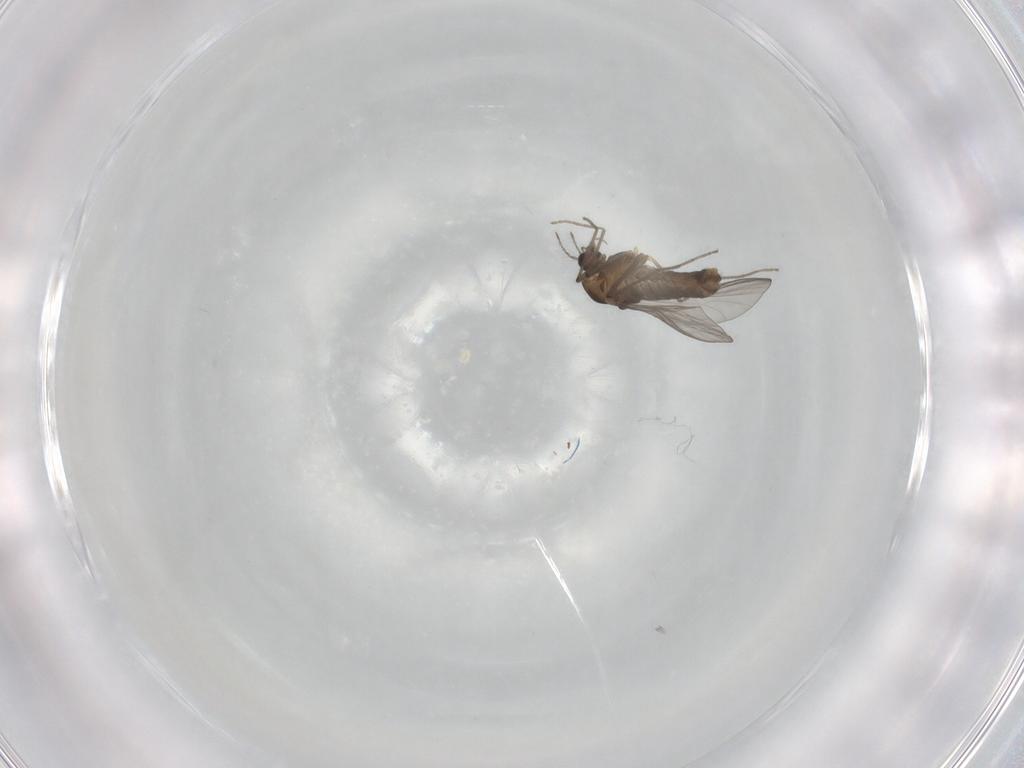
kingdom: Animalia
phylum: Arthropoda
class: Insecta
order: Diptera
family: Chironomidae
